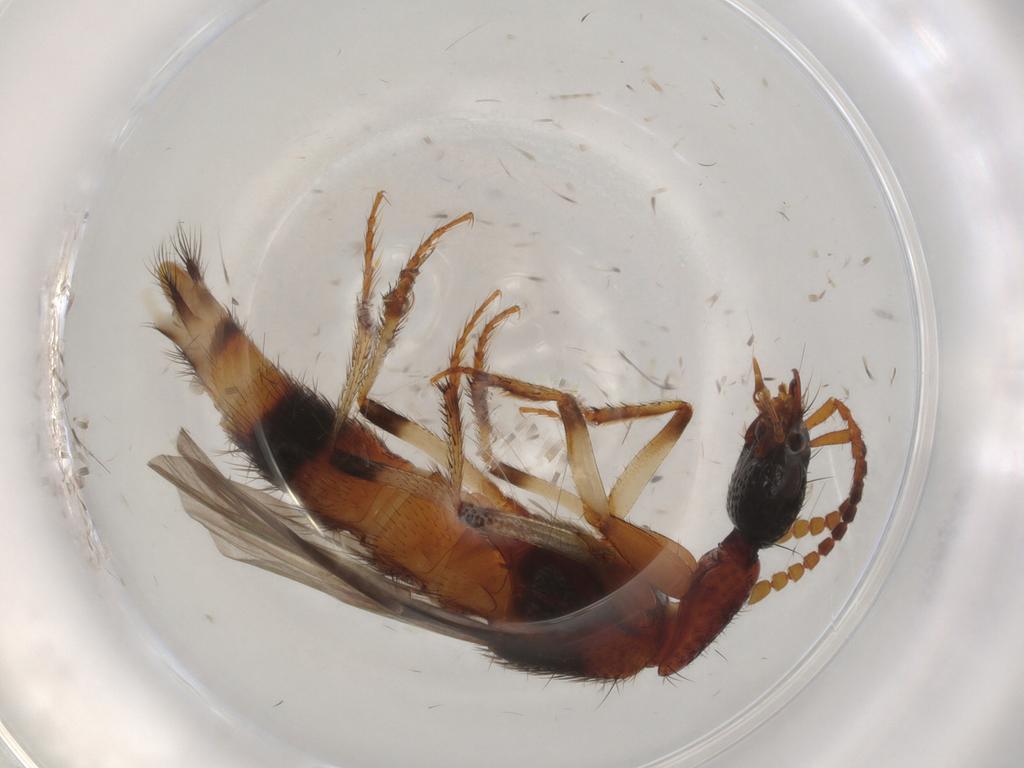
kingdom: Animalia
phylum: Arthropoda
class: Insecta
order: Coleoptera
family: Staphylinidae
